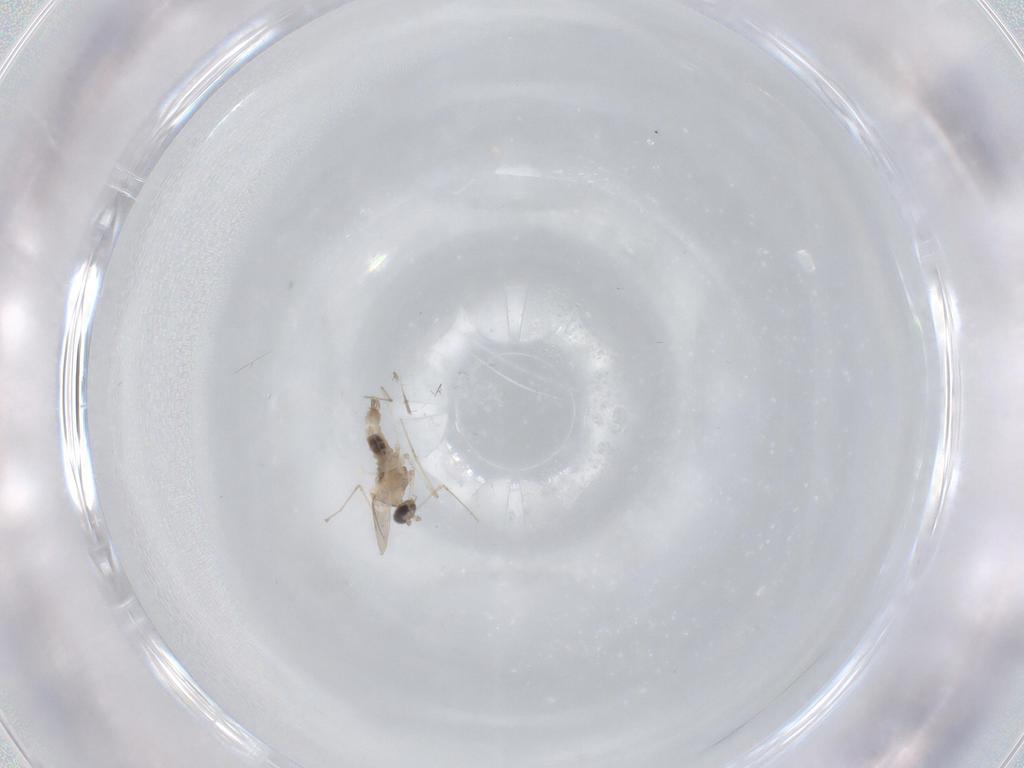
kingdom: Animalia
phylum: Arthropoda
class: Insecta
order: Diptera
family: Cecidomyiidae
